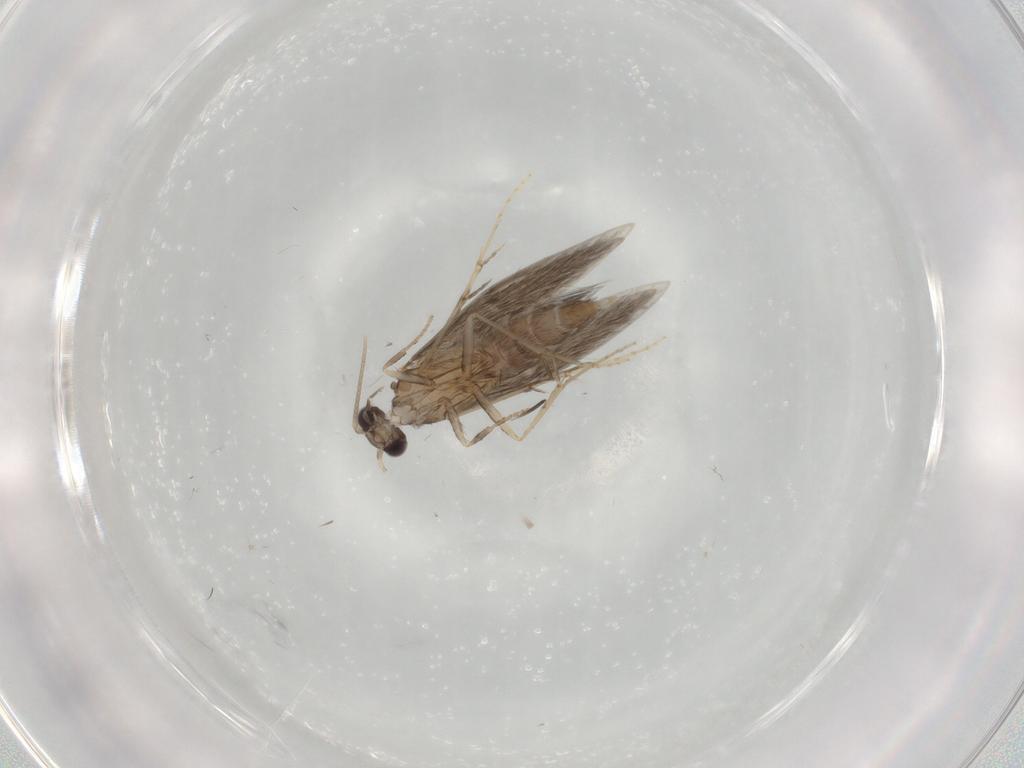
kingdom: Animalia
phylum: Arthropoda
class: Insecta
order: Trichoptera
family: Hydroptilidae
